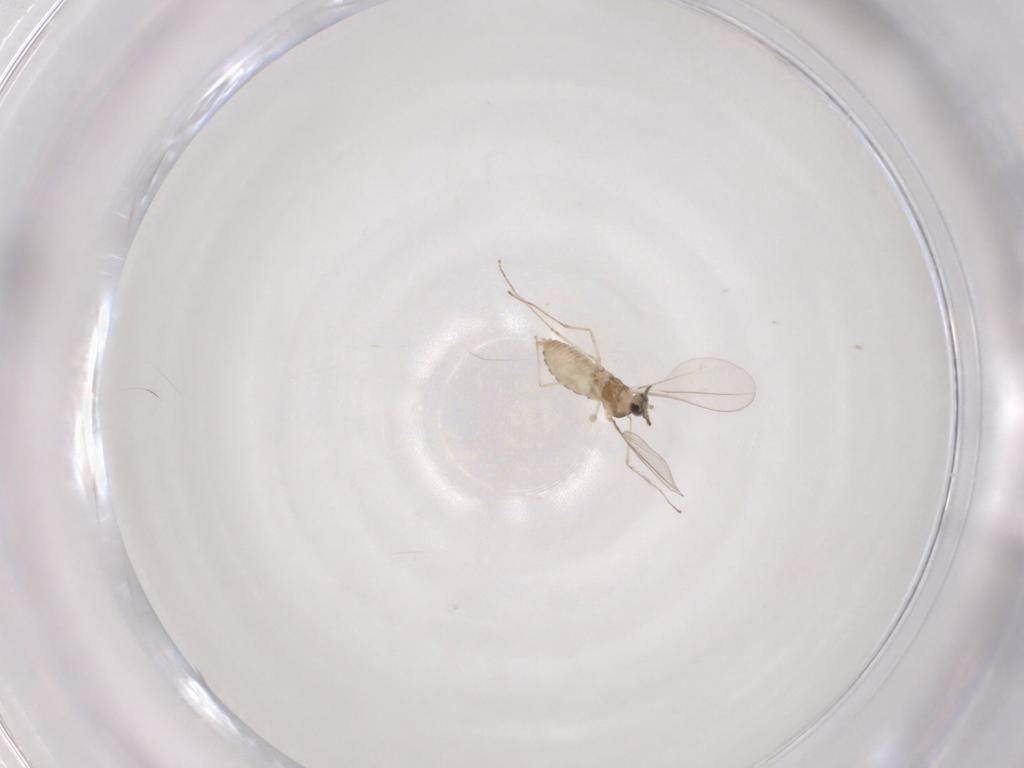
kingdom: Animalia
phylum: Arthropoda
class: Insecta
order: Diptera
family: Cecidomyiidae
